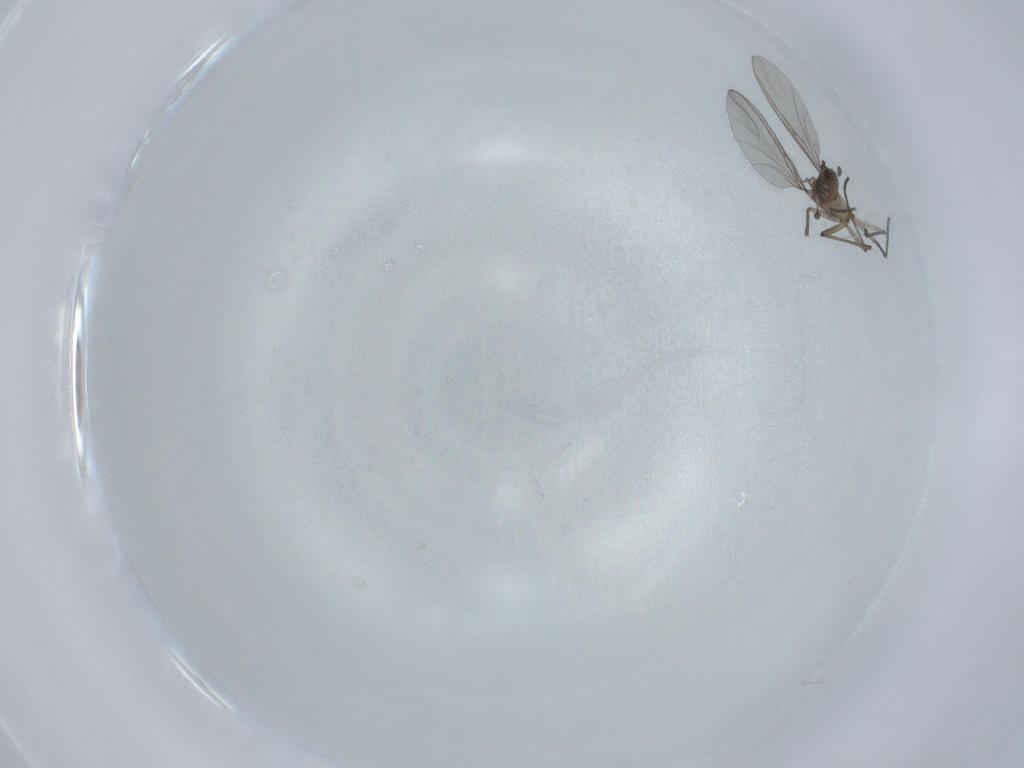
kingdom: Animalia
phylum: Arthropoda
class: Insecta
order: Diptera
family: Sciaridae
